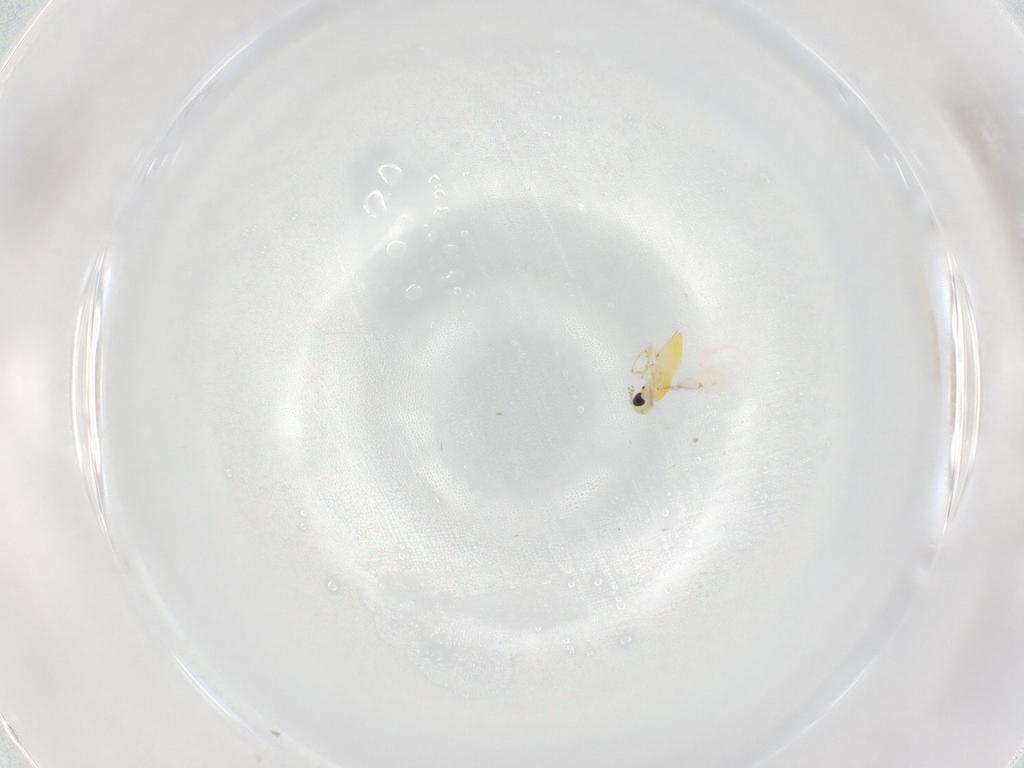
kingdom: Animalia
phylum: Arthropoda
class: Insecta
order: Hymenoptera
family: Trichogrammatidae
